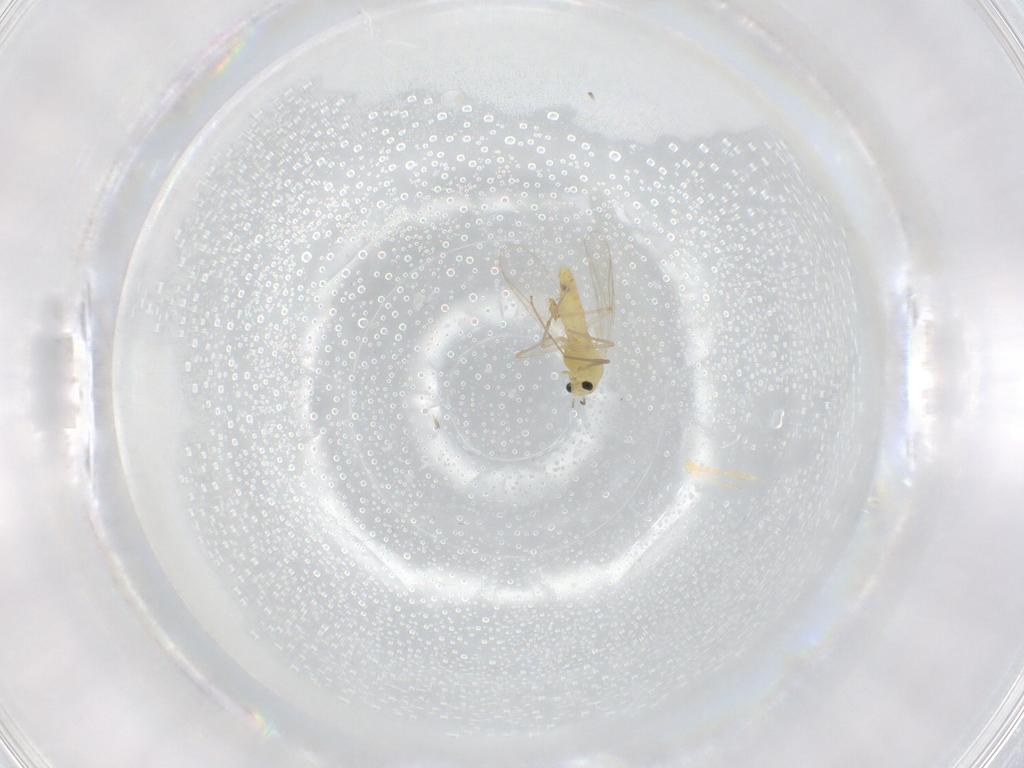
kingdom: Animalia
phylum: Arthropoda
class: Insecta
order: Diptera
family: Chironomidae
